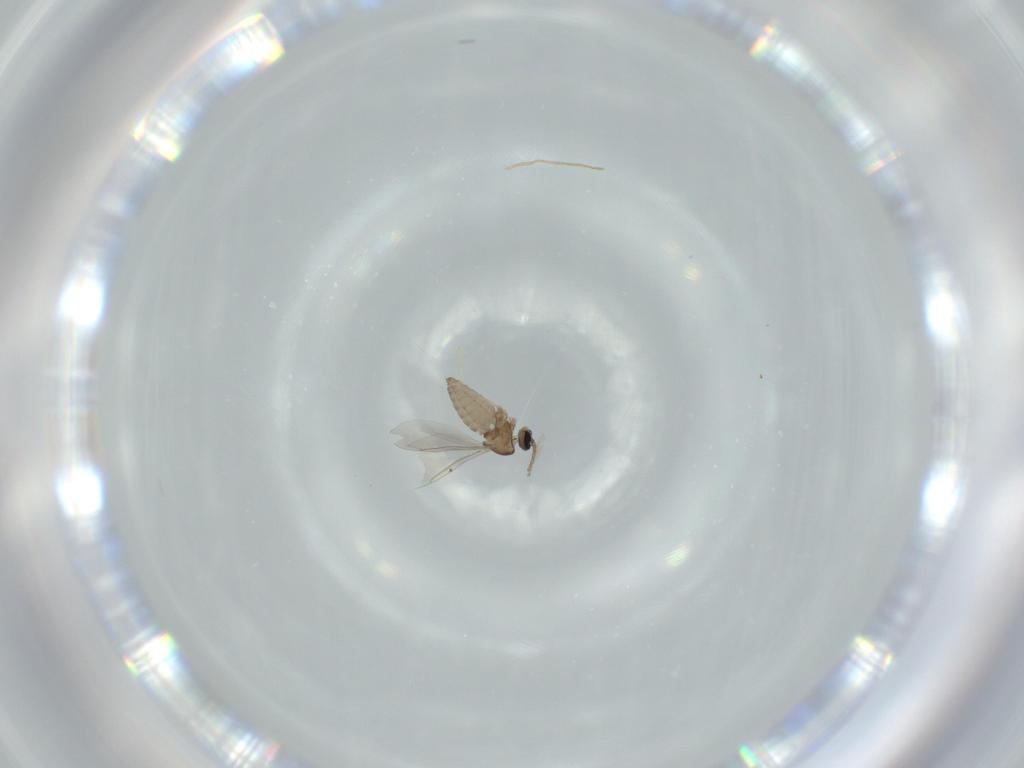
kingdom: Animalia
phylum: Arthropoda
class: Insecta
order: Diptera
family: Cecidomyiidae
